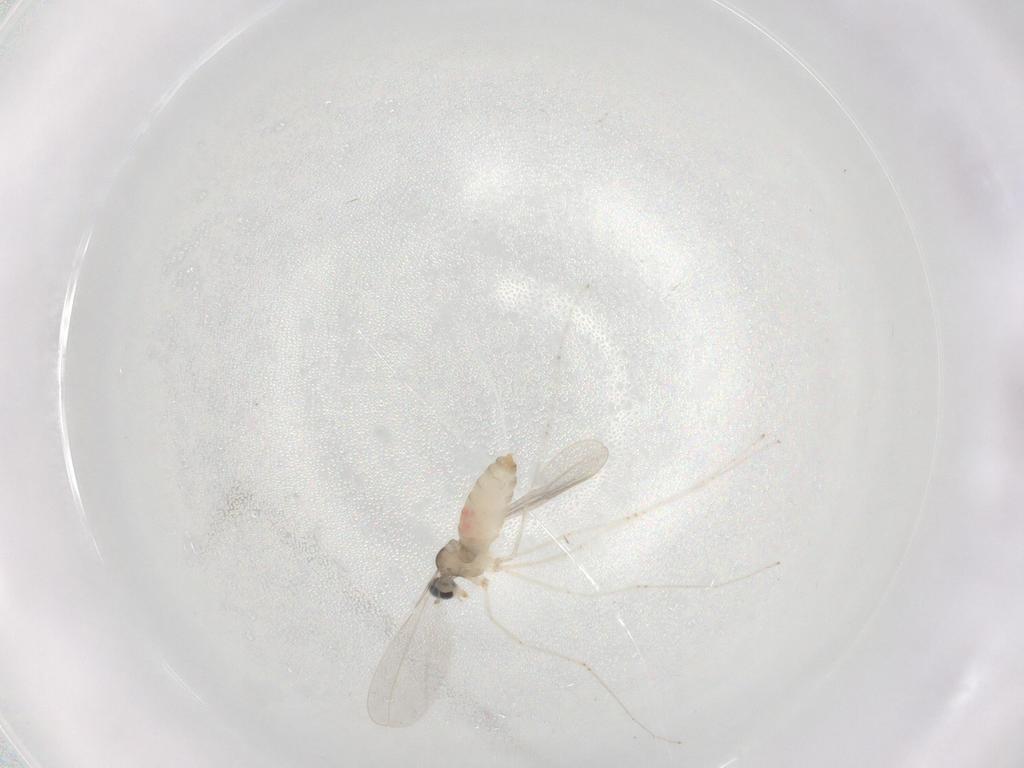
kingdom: Animalia
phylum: Arthropoda
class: Insecta
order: Diptera
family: Cecidomyiidae
